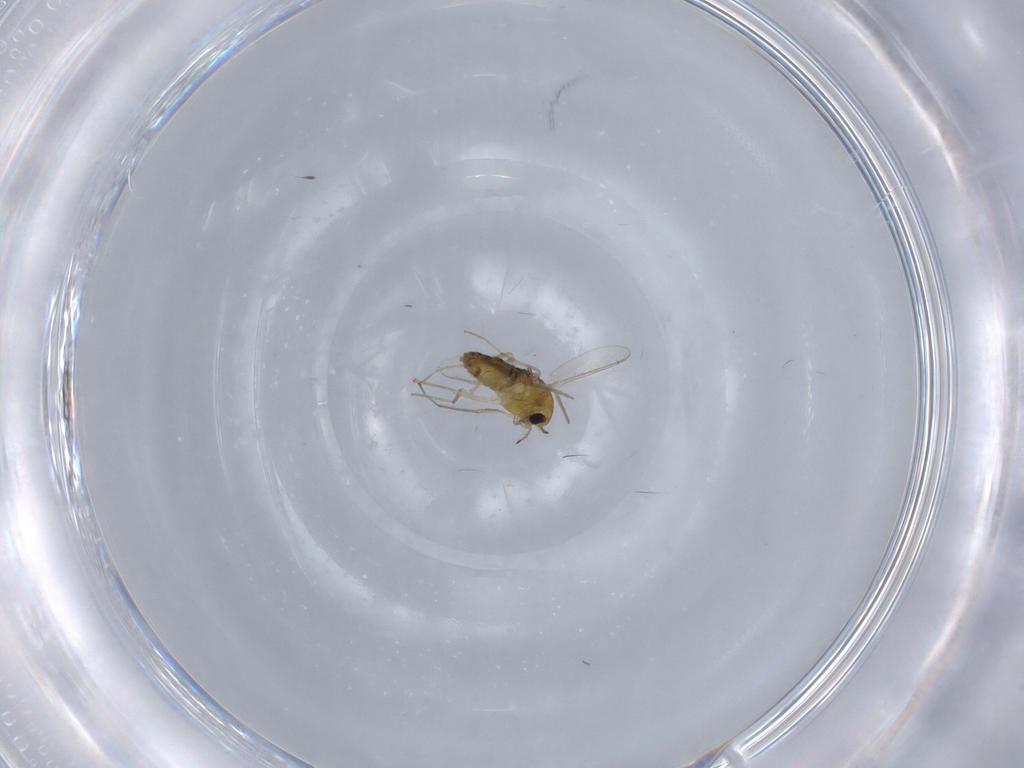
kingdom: Animalia
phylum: Arthropoda
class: Insecta
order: Diptera
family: Chironomidae
